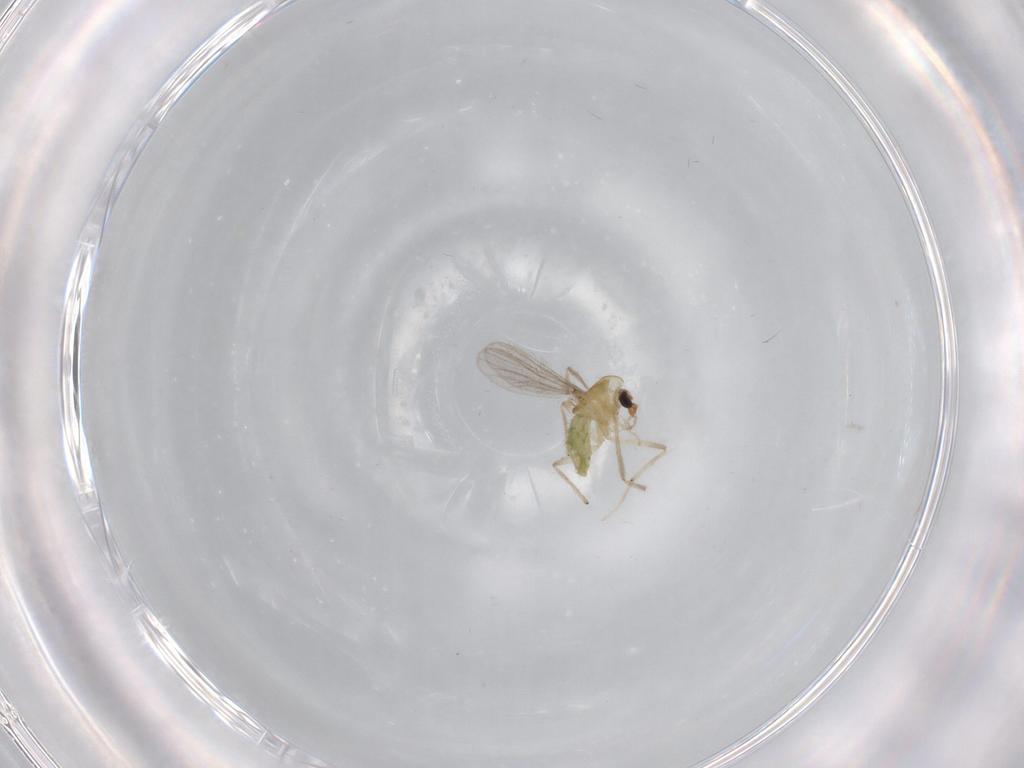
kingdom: Animalia
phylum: Arthropoda
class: Insecta
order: Diptera
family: Chironomidae
